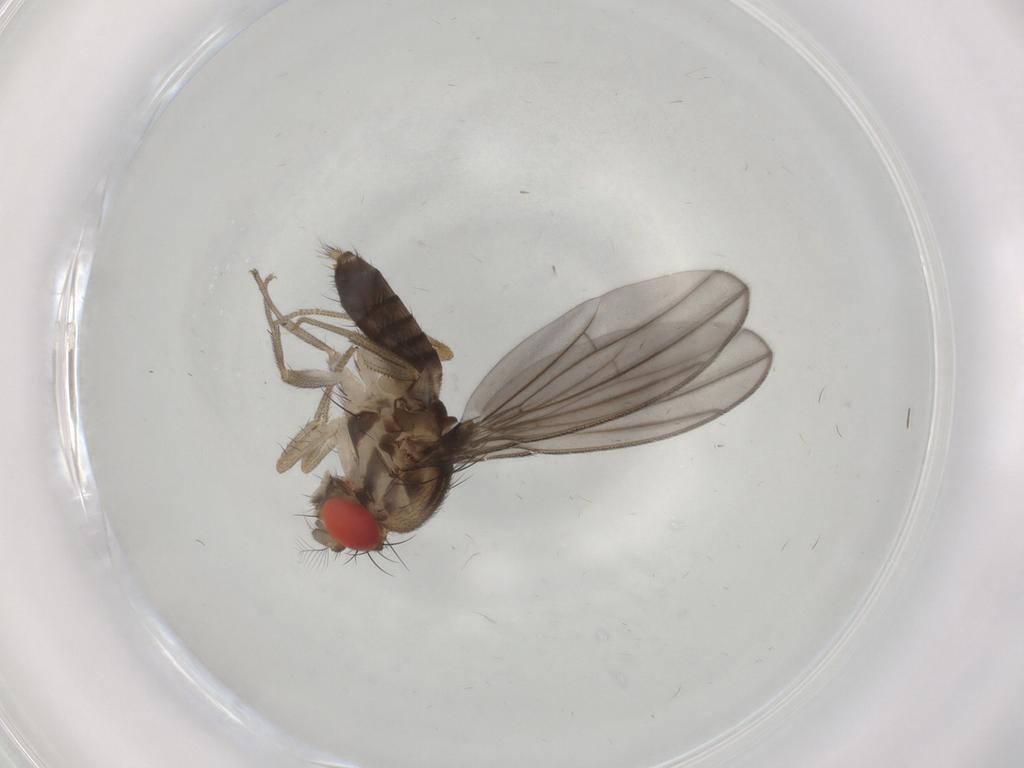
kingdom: Animalia
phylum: Arthropoda
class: Insecta
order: Diptera
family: Drosophilidae
